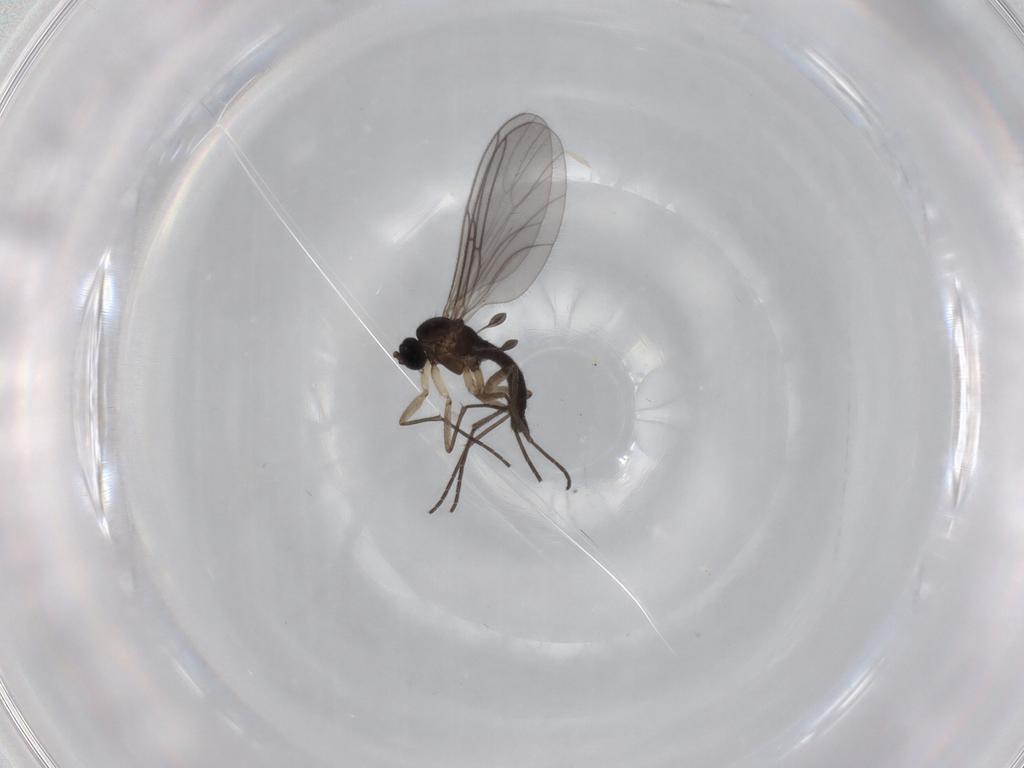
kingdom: Animalia
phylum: Arthropoda
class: Insecta
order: Diptera
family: Sciaridae
